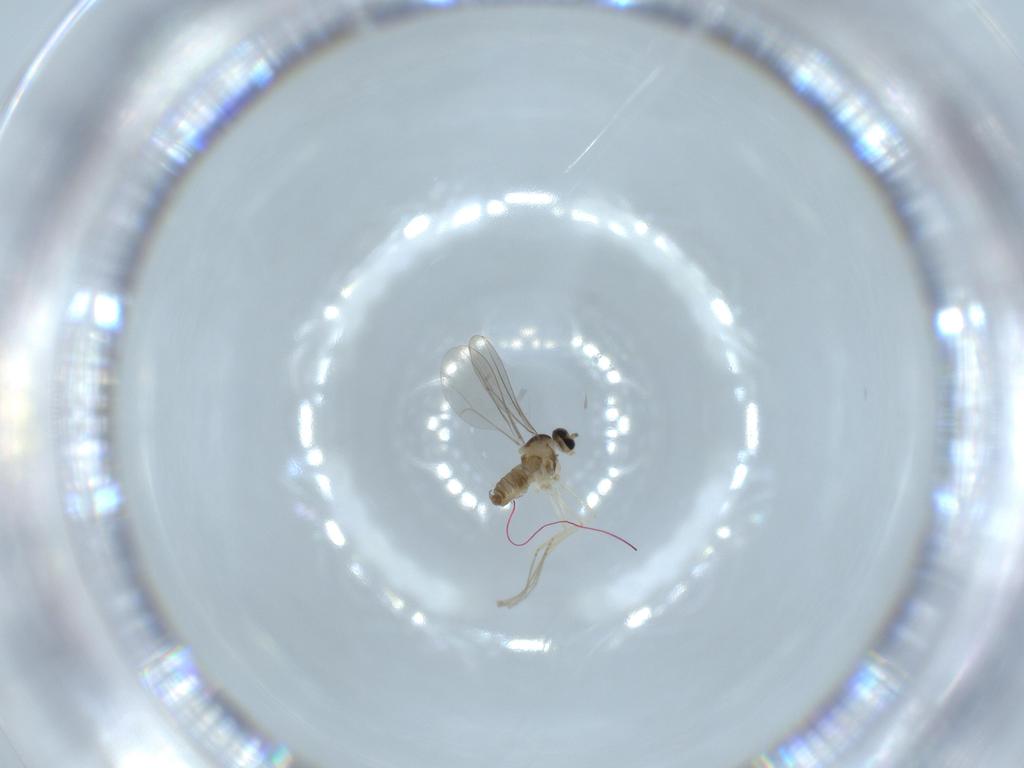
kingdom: Animalia
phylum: Arthropoda
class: Insecta
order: Diptera
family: Cecidomyiidae
